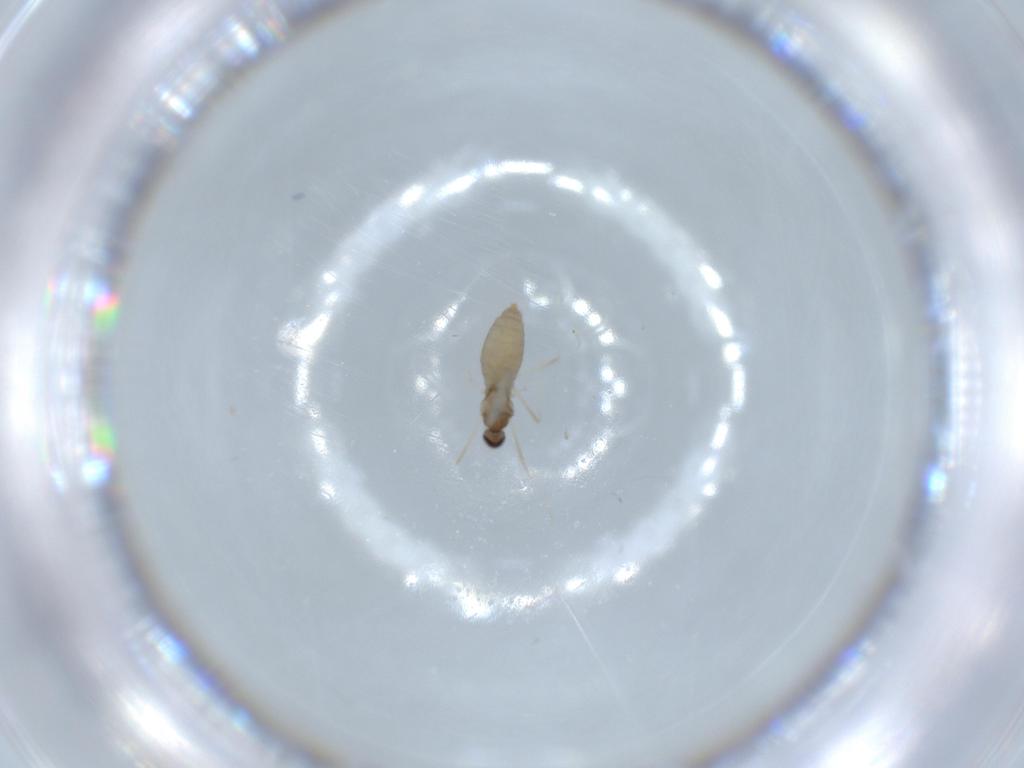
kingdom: Animalia
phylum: Arthropoda
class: Insecta
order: Diptera
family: Cecidomyiidae
